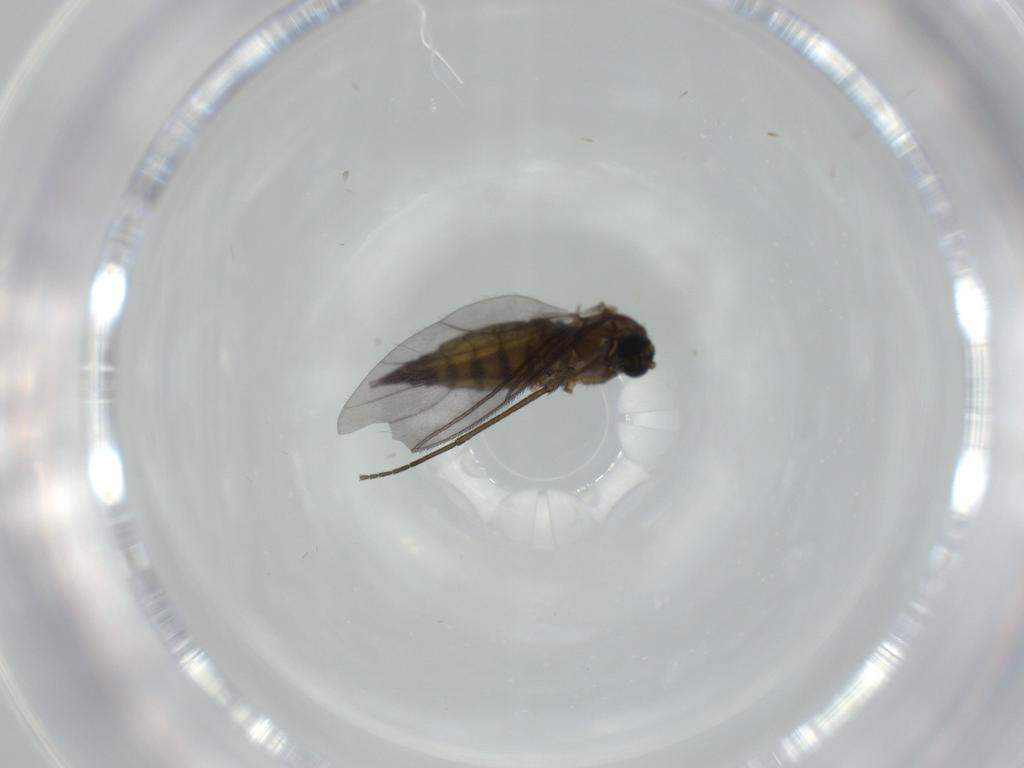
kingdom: Animalia
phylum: Arthropoda
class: Insecta
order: Diptera
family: Sciaridae
